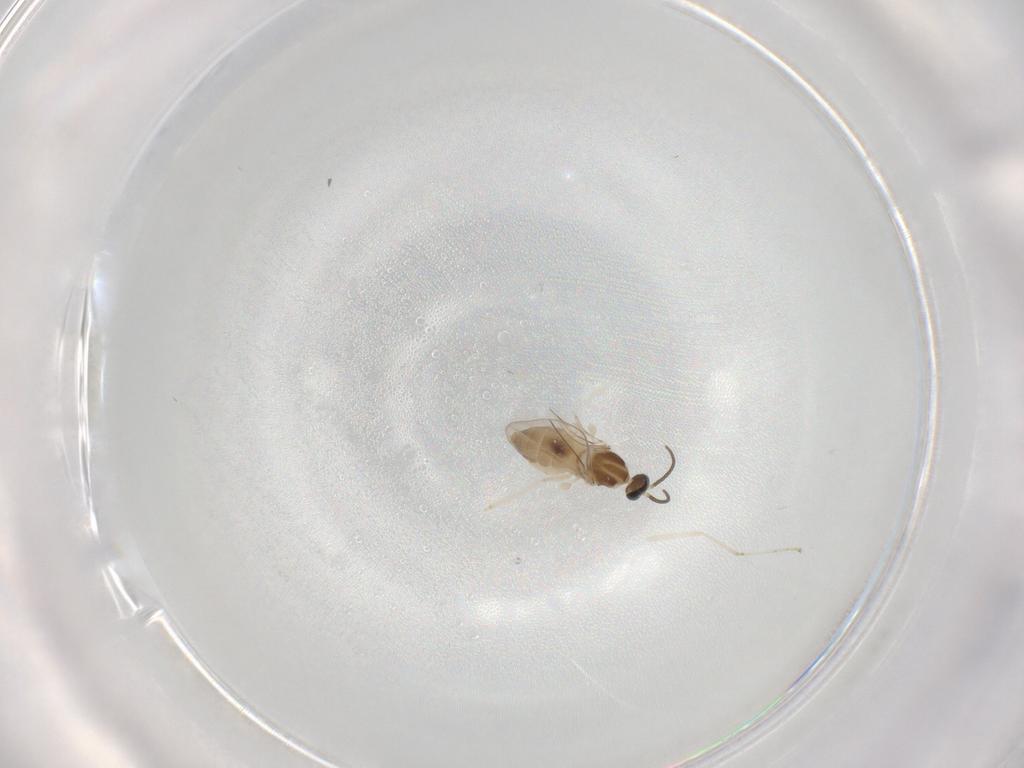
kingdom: Animalia
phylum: Arthropoda
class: Insecta
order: Diptera
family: Cecidomyiidae
